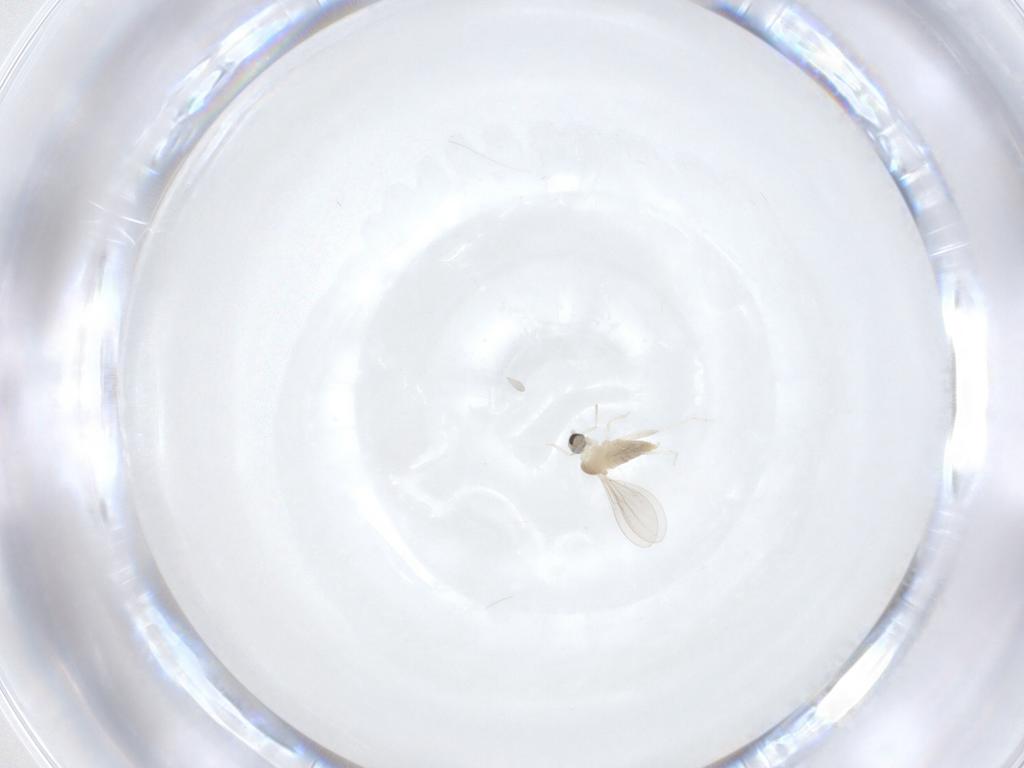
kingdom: Animalia
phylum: Arthropoda
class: Insecta
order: Diptera
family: Cecidomyiidae
